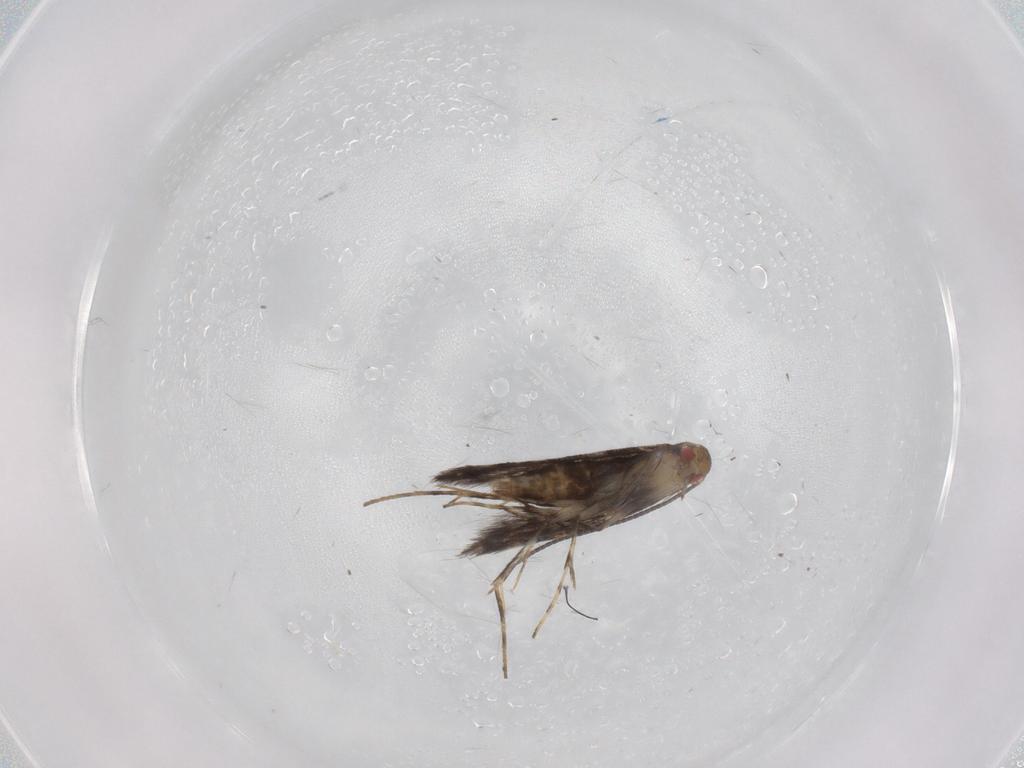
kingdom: Animalia
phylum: Arthropoda
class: Insecta
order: Lepidoptera
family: Gracillariidae
